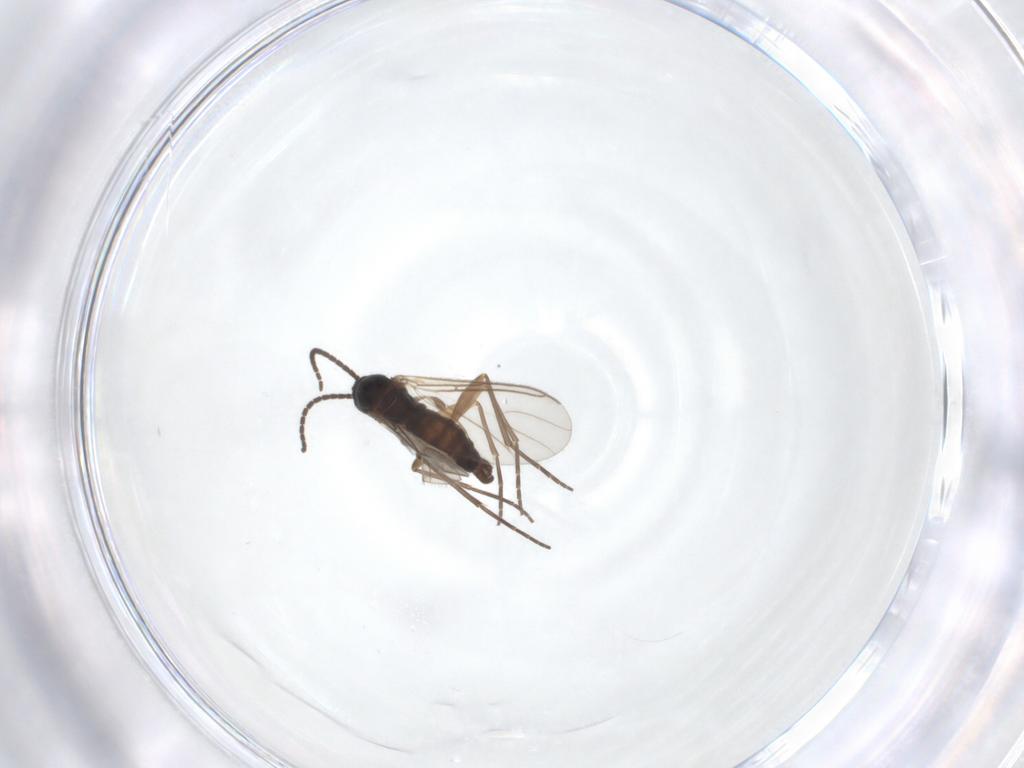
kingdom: Animalia
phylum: Arthropoda
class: Insecta
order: Diptera
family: Sciaridae
